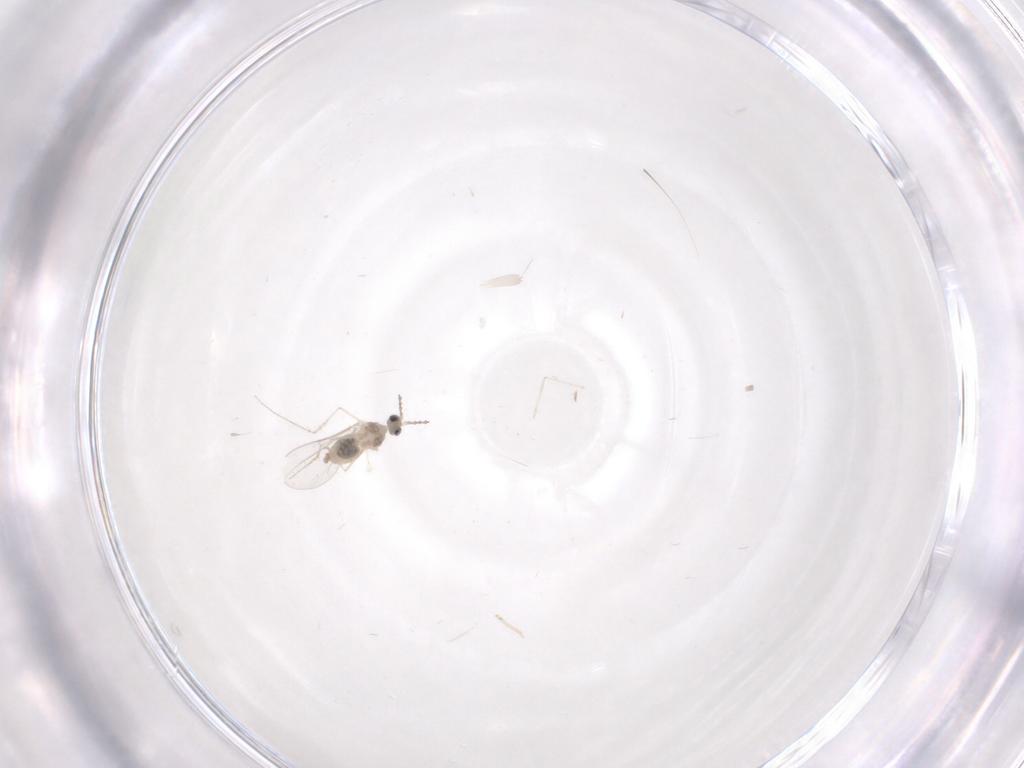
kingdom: Animalia
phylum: Arthropoda
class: Insecta
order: Diptera
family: Cecidomyiidae
